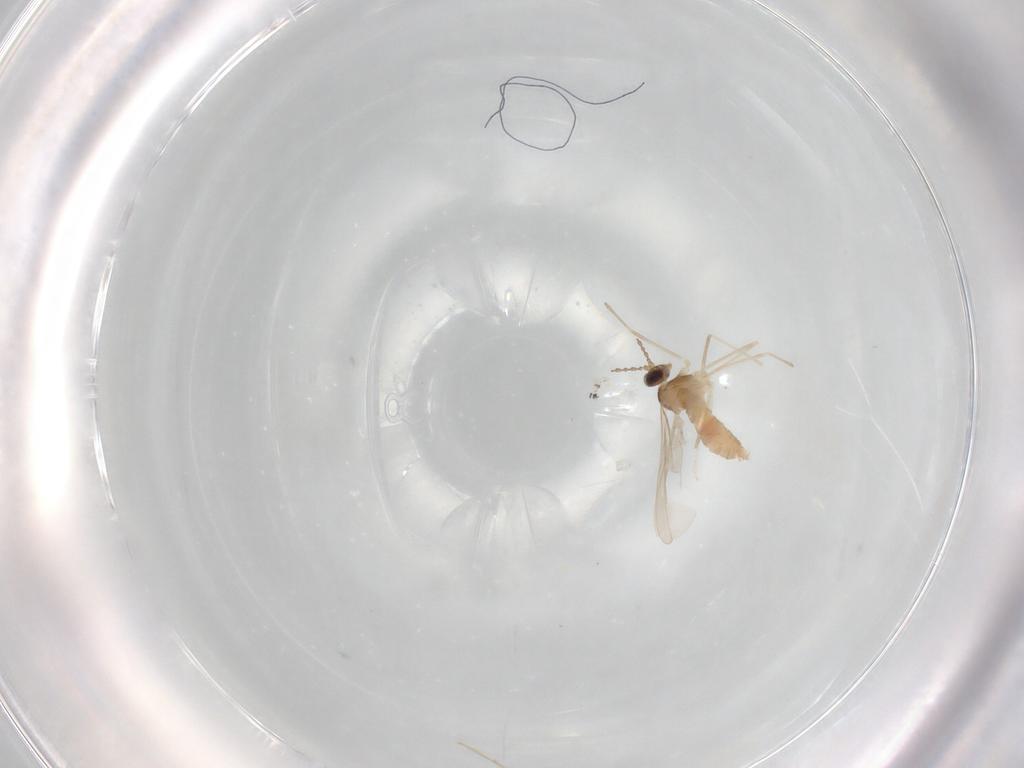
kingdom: Animalia
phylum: Arthropoda
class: Insecta
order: Diptera
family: Cecidomyiidae
